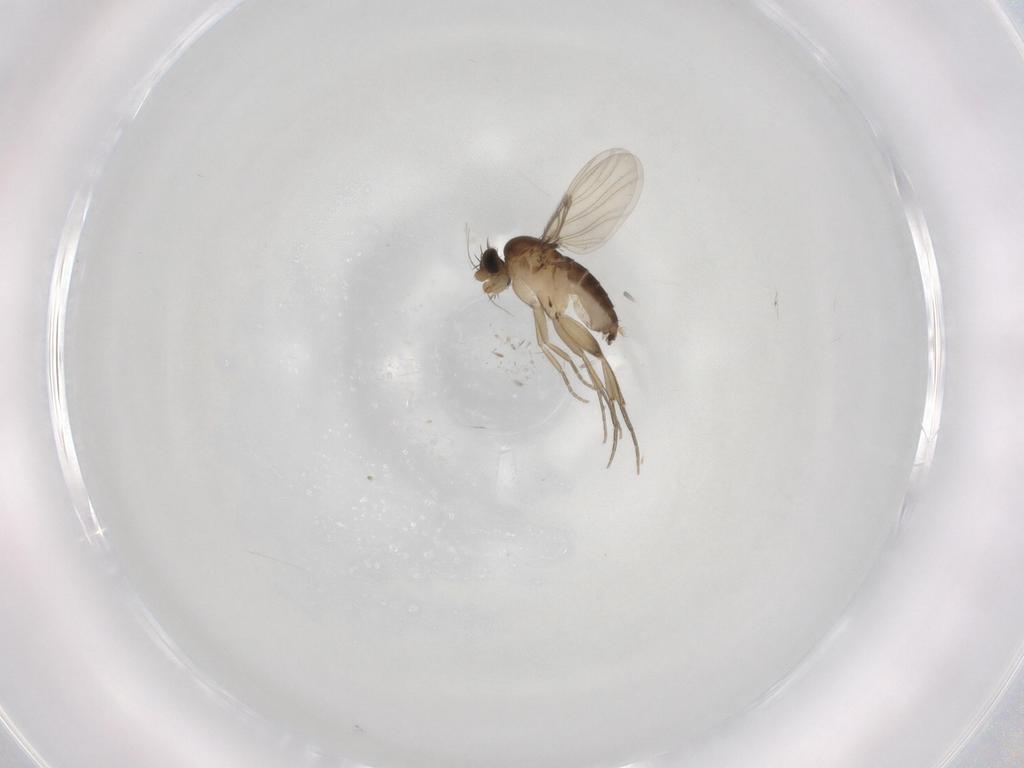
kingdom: Animalia
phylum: Arthropoda
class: Insecta
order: Diptera
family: Phoridae
